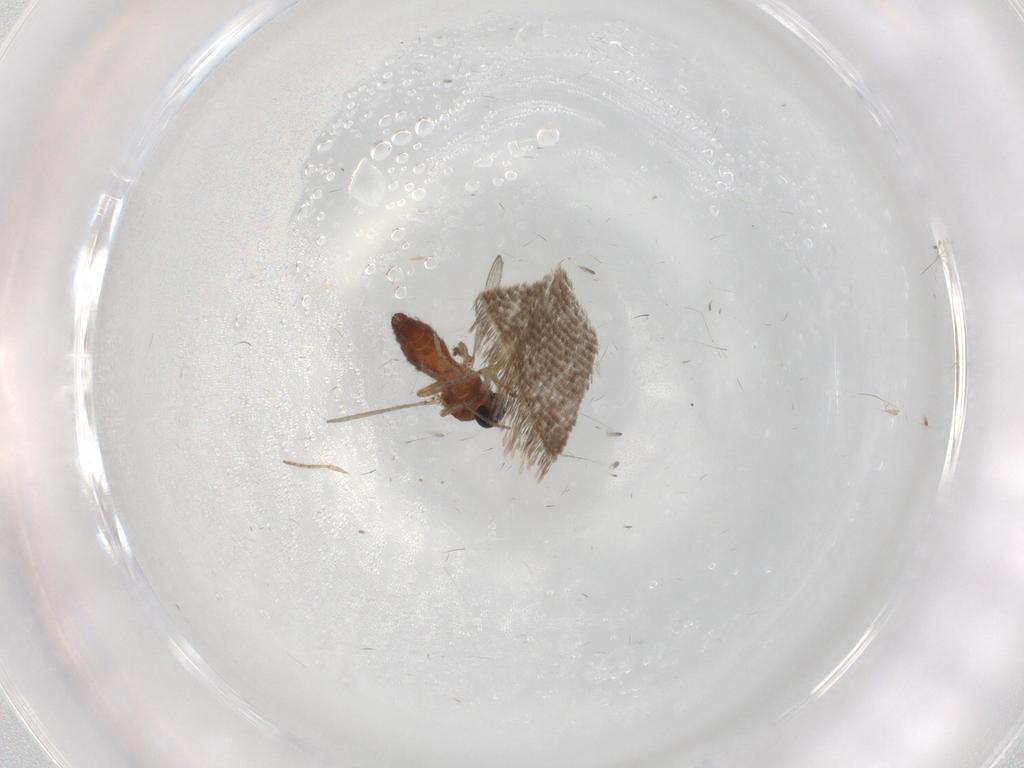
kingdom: Animalia
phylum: Arthropoda
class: Insecta
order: Diptera
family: Ceratopogonidae
